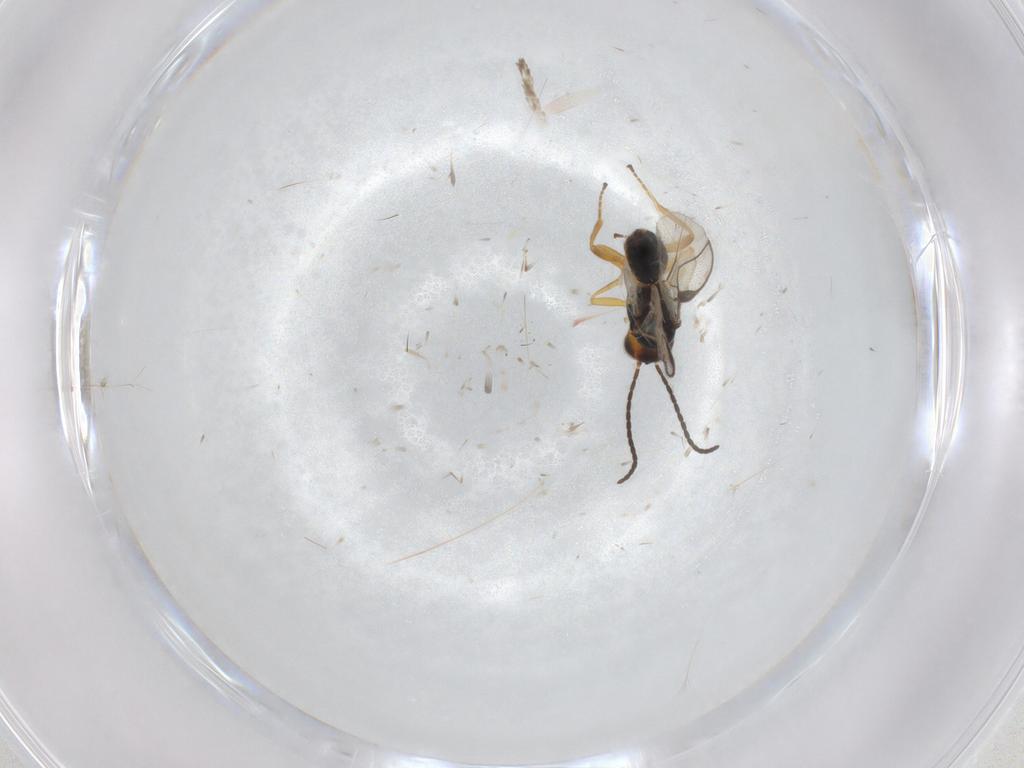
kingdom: Animalia
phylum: Arthropoda
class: Insecta
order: Hymenoptera
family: Braconidae
